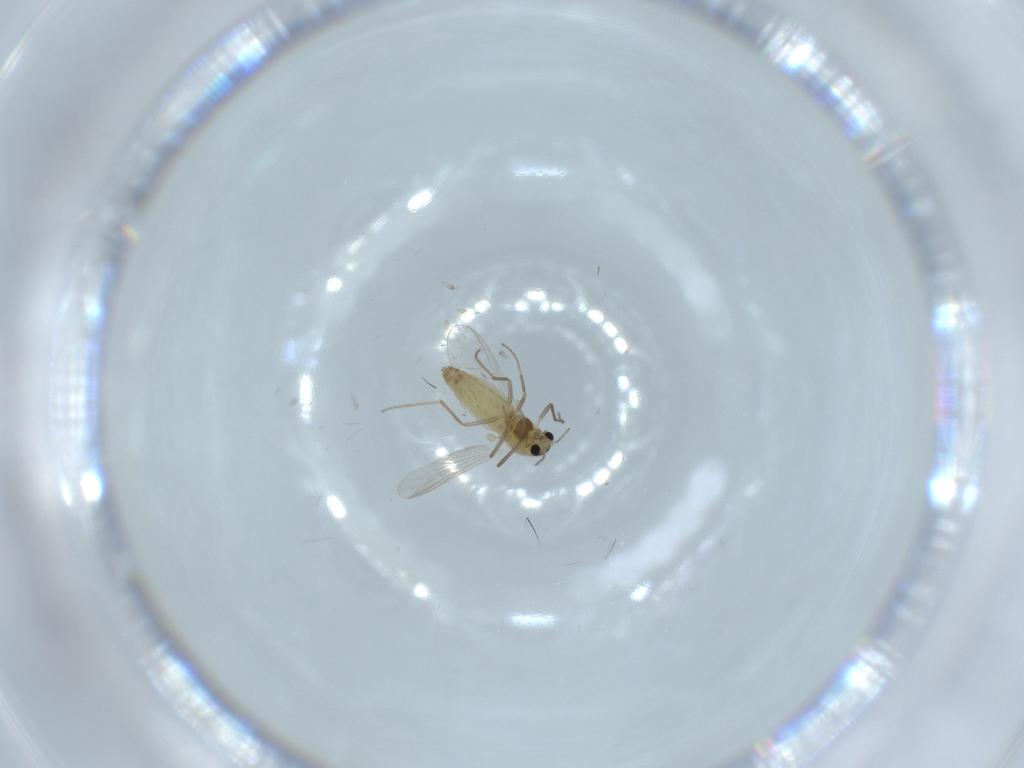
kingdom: Animalia
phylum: Arthropoda
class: Insecta
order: Diptera
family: Chironomidae
